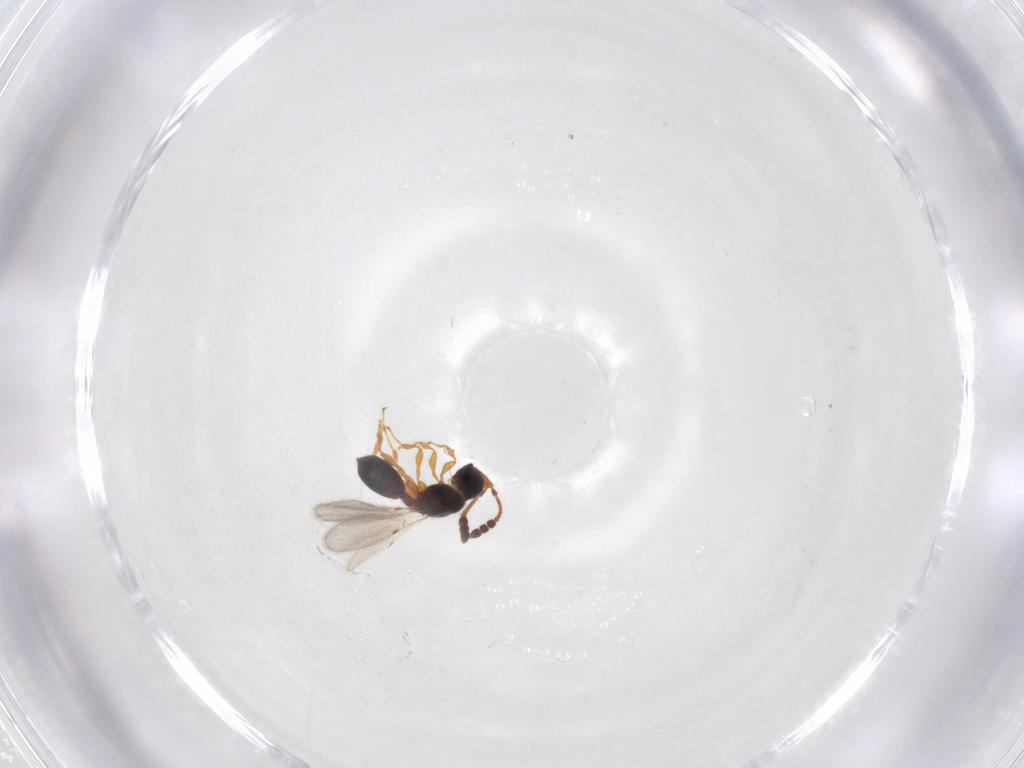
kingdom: Animalia
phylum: Arthropoda
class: Insecta
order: Hymenoptera
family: Diapriidae
